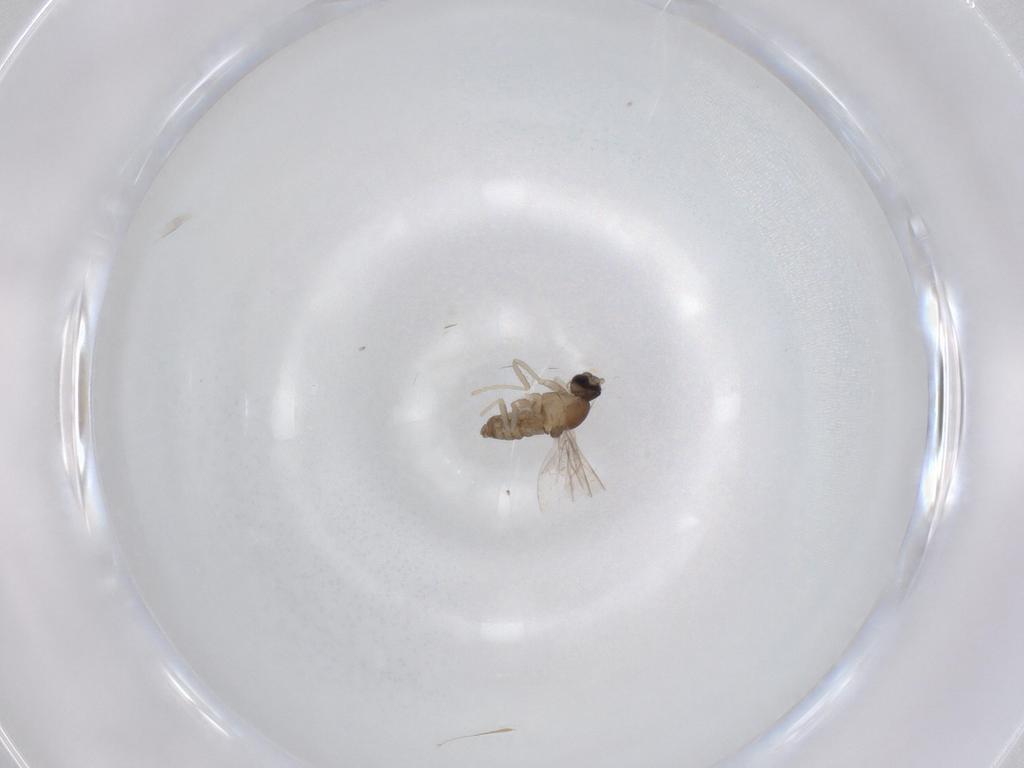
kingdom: Animalia
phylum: Arthropoda
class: Insecta
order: Diptera
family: Cecidomyiidae
